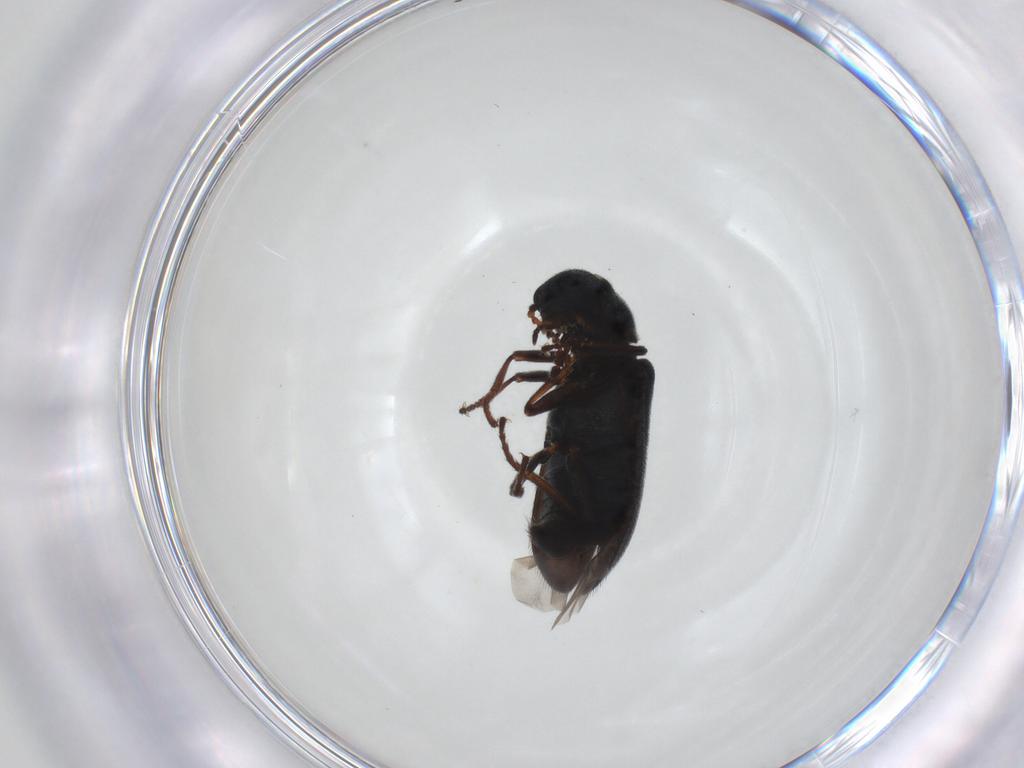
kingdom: Animalia
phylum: Arthropoda
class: Insecta
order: Coleoptera
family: Melyridae
